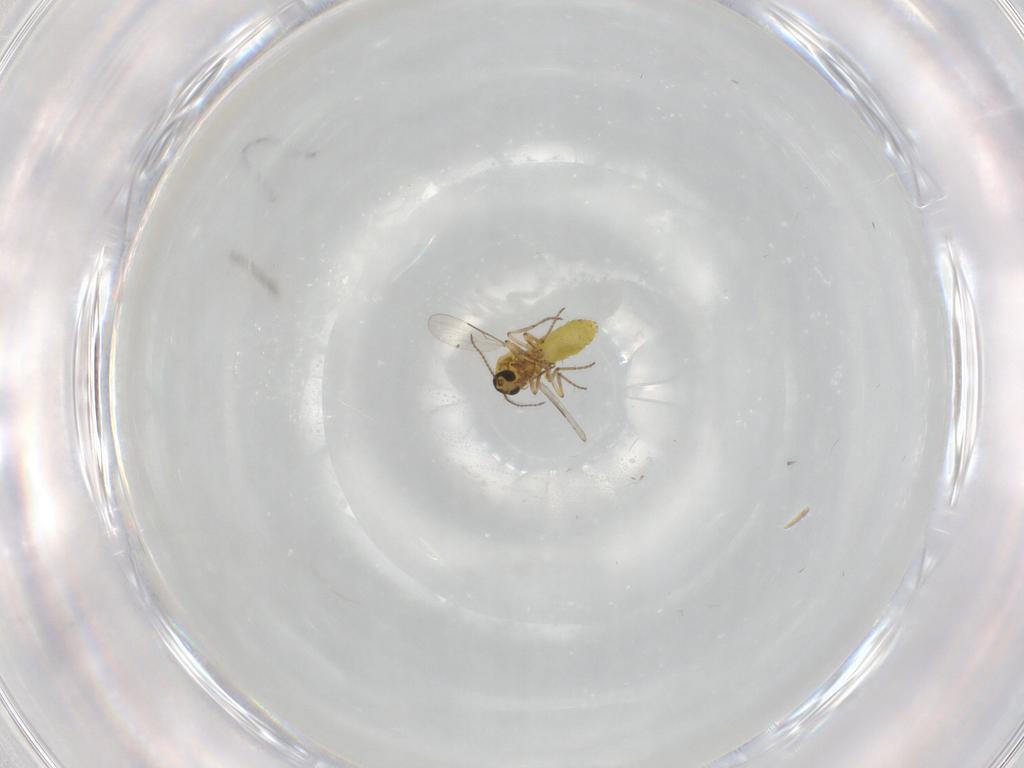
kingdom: Animalia
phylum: Arthropoda
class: Insecta
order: Diptera
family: Ceratopogonidae
